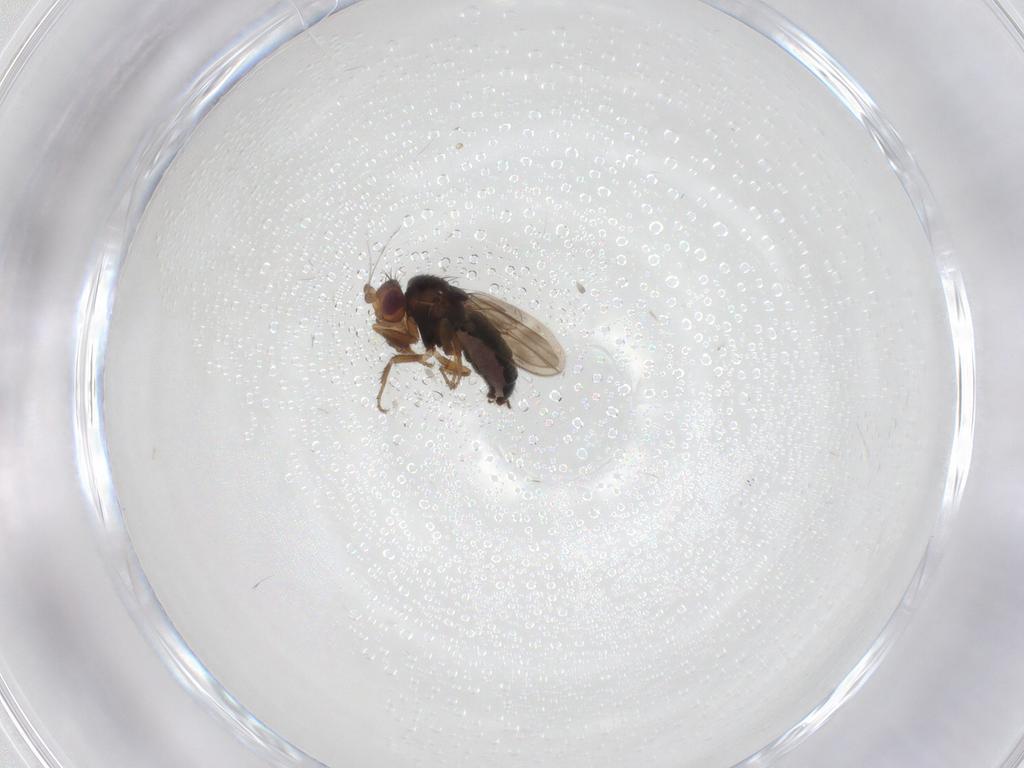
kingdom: Animalia
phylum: Arthropoda
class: Insecta
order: Diptera
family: Sphaeroceridae
